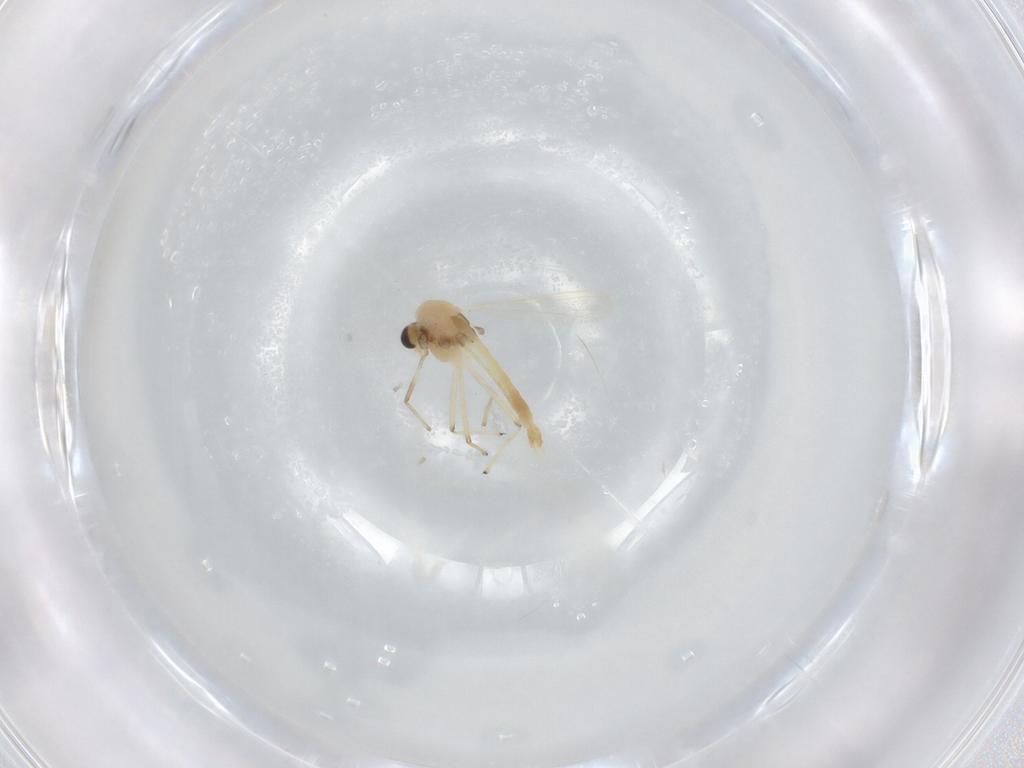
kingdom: Animalia
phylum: Arthropoda
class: Insecta
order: Diptera
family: Chironomidae
